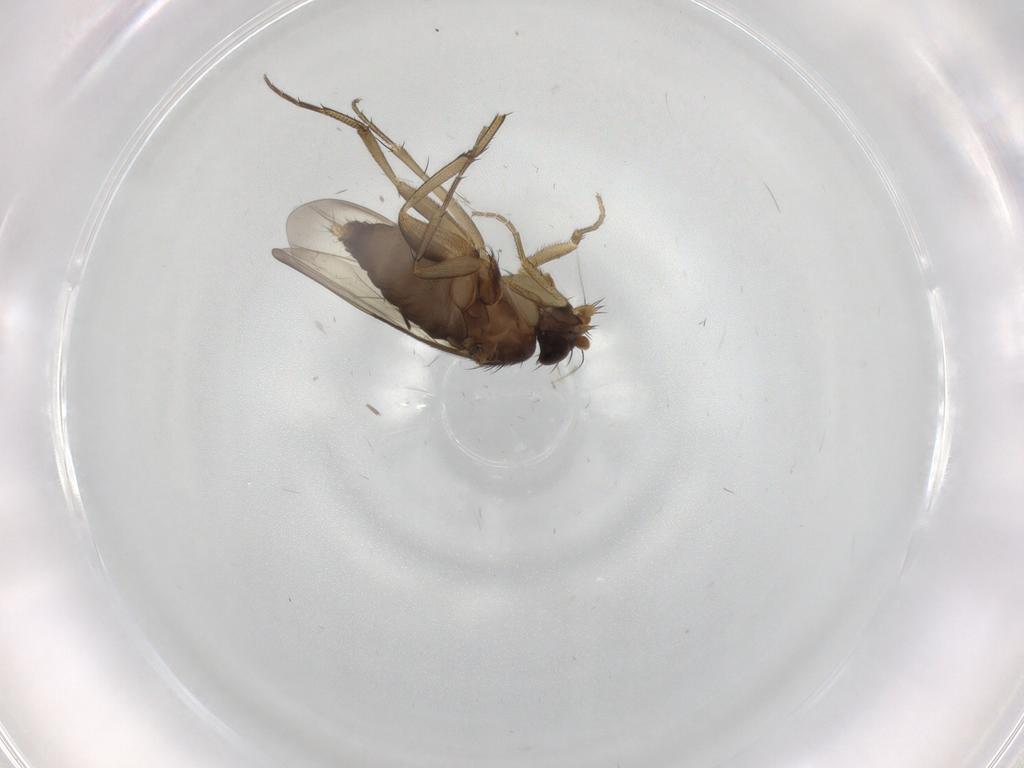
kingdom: Animalia
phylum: Arthropoda
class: Insecta
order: Diptera
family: Phoridae
